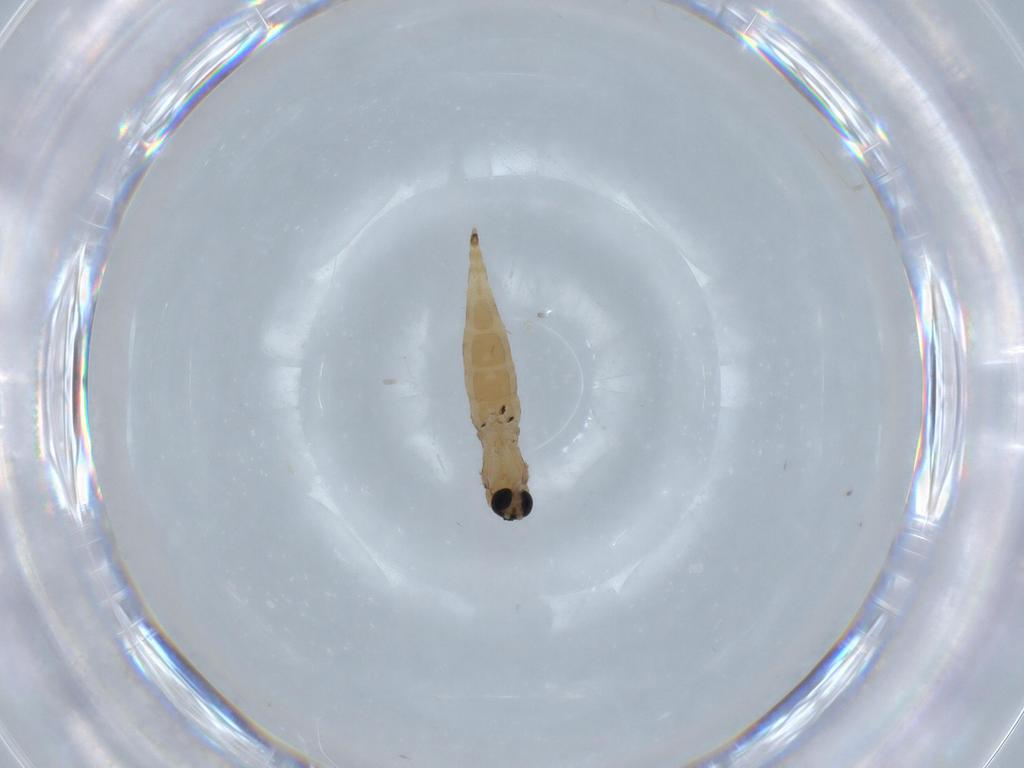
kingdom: Animalia
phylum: Arthropoda
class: Insecta
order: Diptera
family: Sciaridae
